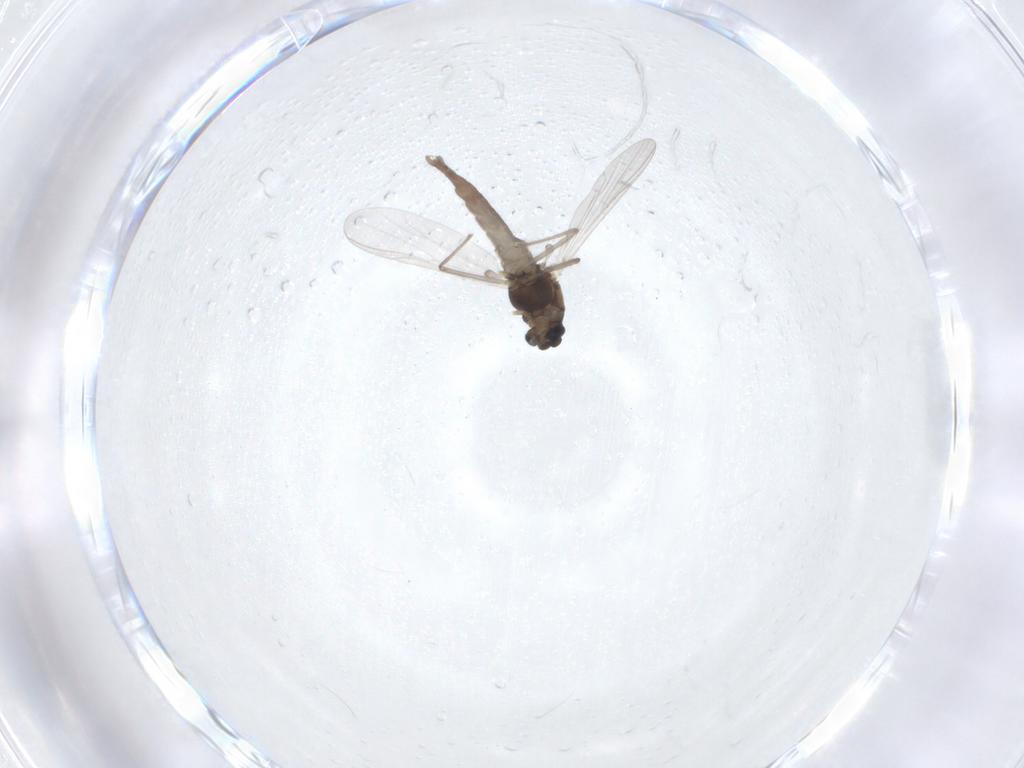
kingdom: Animalia
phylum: Arthropoda
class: Insecta
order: Diptera
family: Chironomidae
